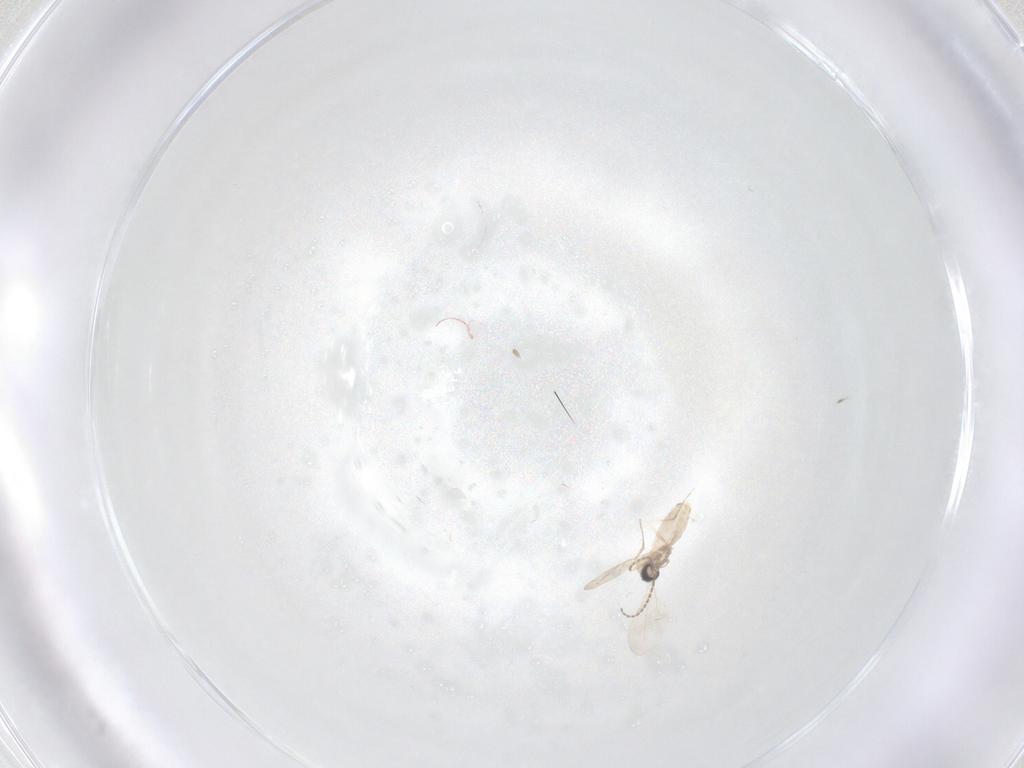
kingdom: Animalia
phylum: Arthropoda
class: Insecta
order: Diptera
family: Cecidomyiidae
